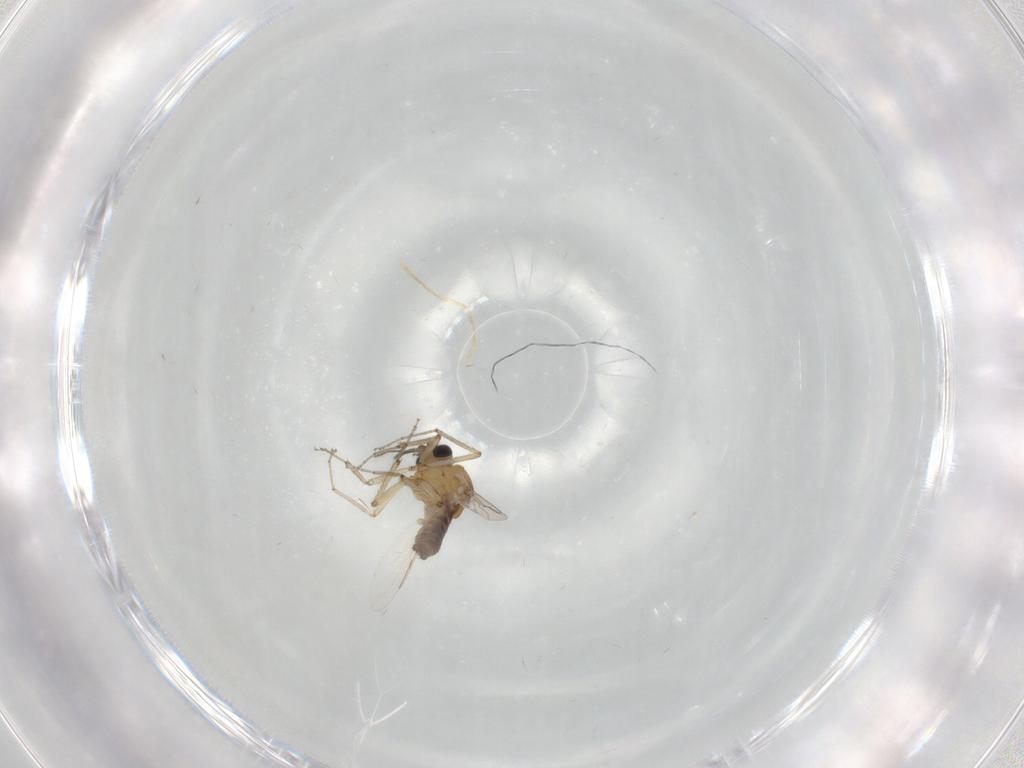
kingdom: Animalia
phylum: Arthropoda
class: Insecta
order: Diptera
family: Ceratopogonidae
